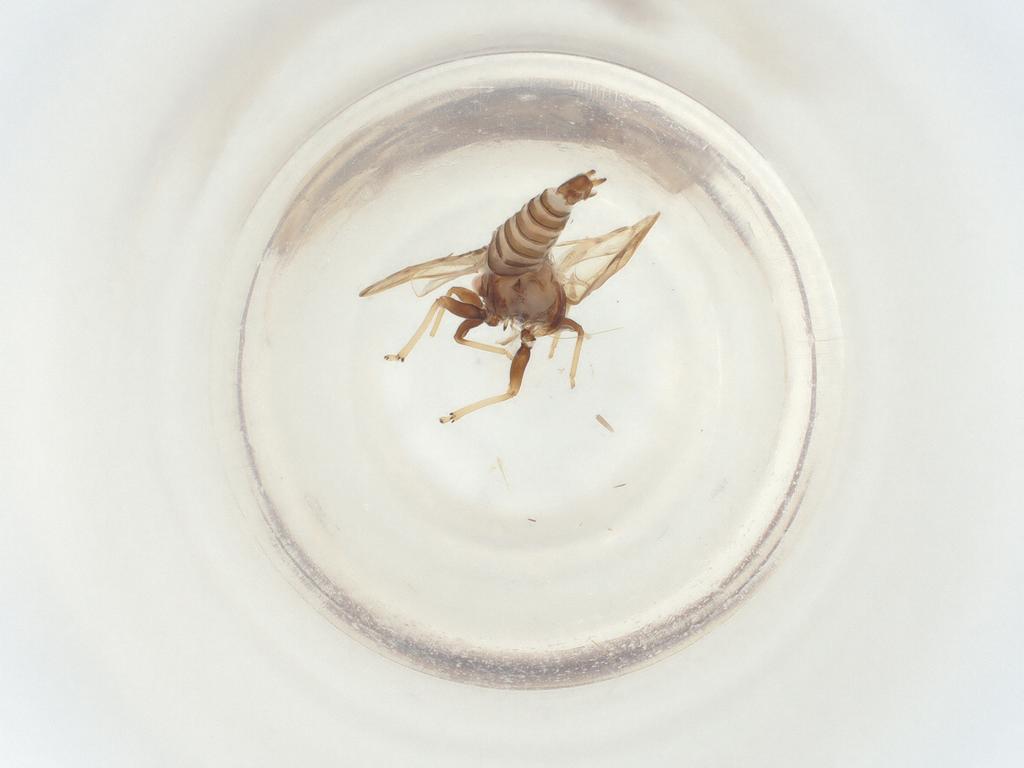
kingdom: Animalia
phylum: Arthropoda
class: Insecta
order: Hemiptera
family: Psyllidae
